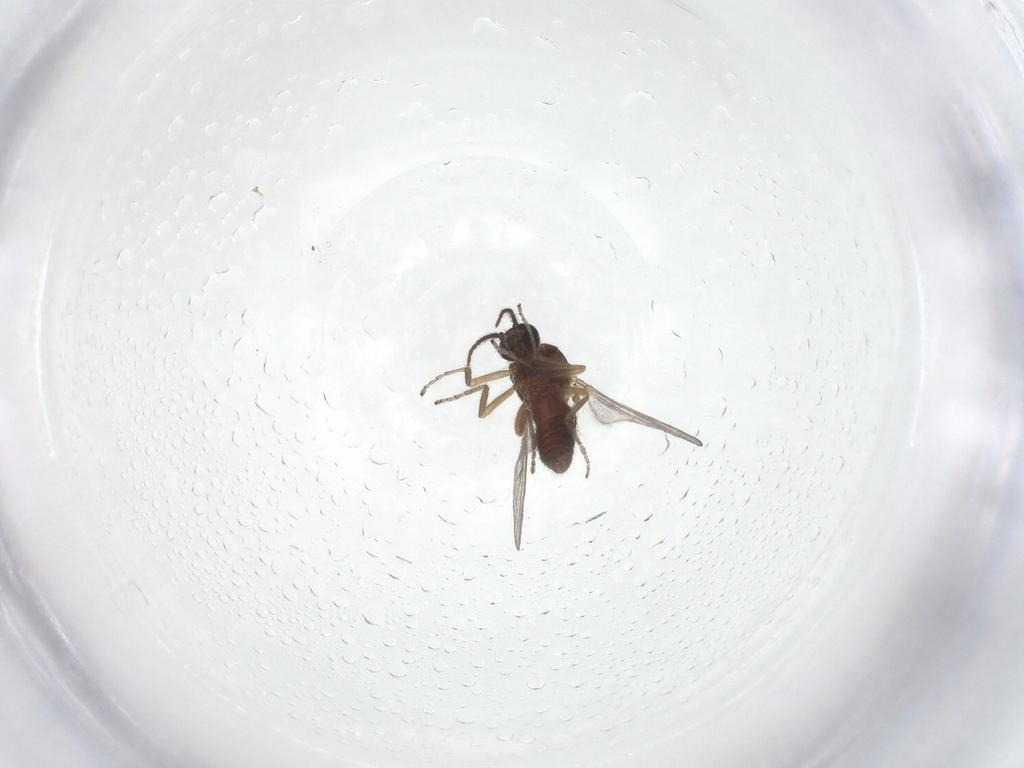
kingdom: Animalia
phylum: Arthropoda
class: Insecta
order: Diptera
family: Ceratopogonidae
